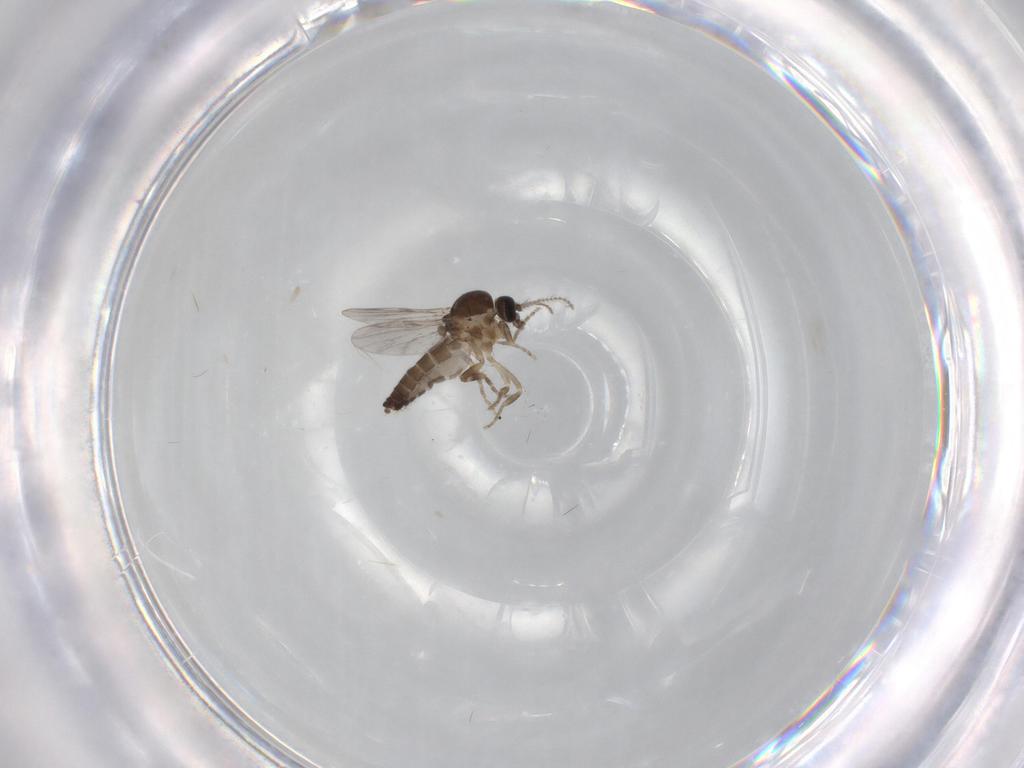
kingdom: Animalia
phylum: Arthropoda
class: Insecta
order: Diptera
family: Ceratopogonidae
